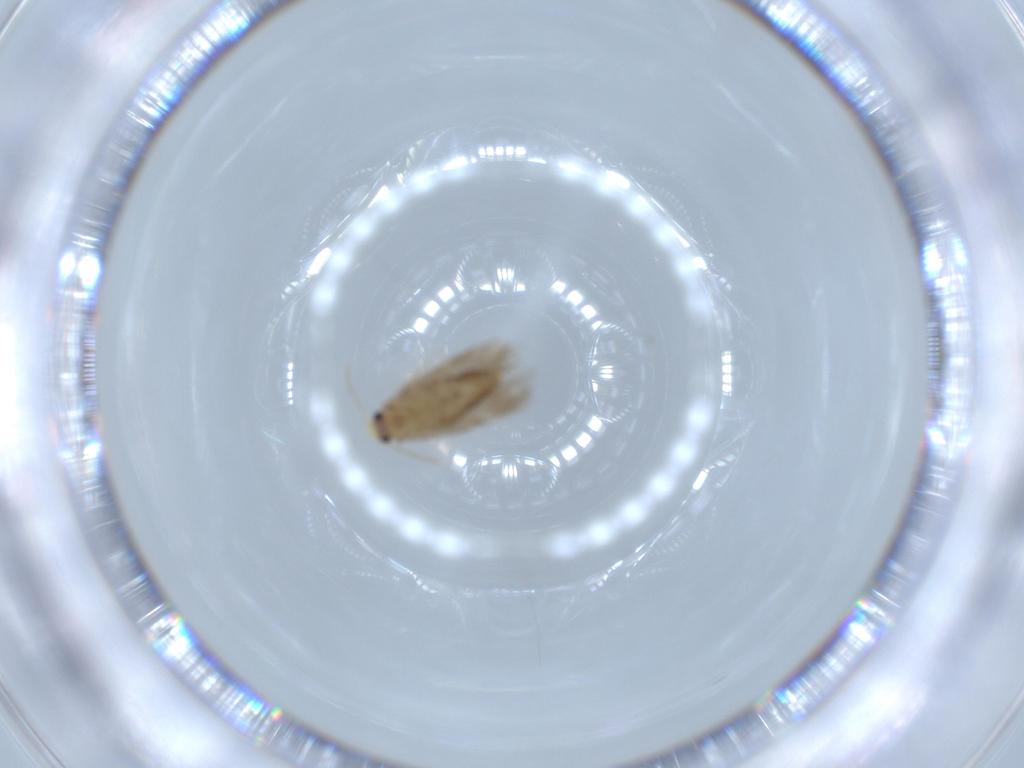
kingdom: Animalia
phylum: Arthropoda
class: Insecta
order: Lepidoptera
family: Nepticulidae
